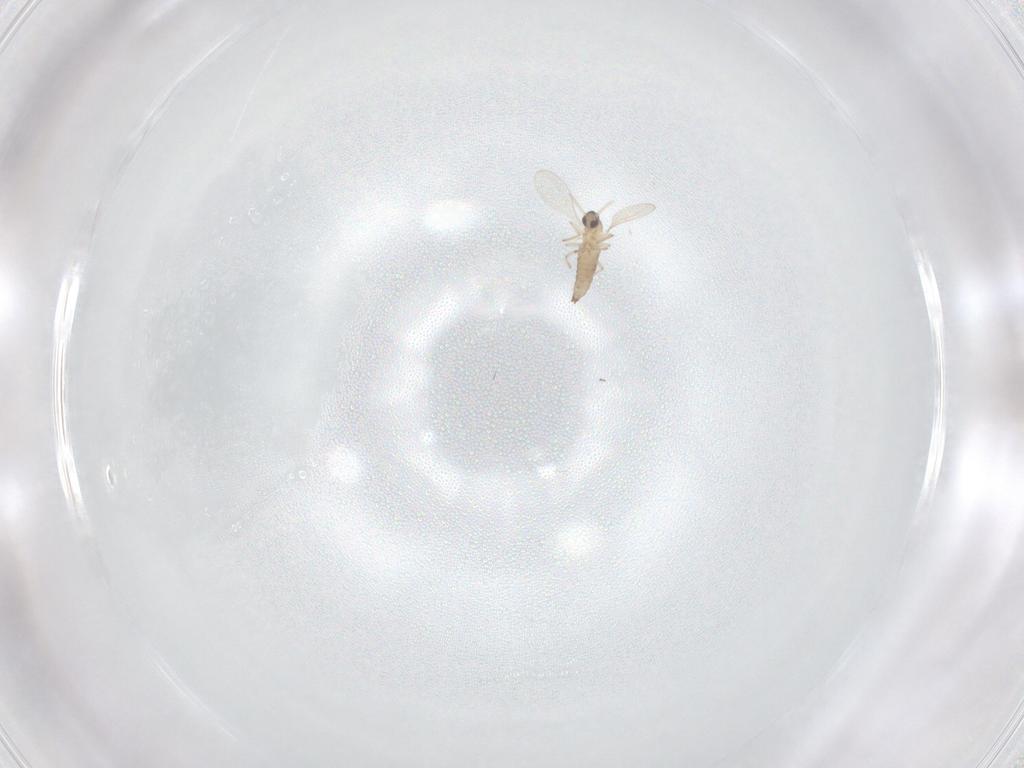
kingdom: Animalia
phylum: Arthropoda
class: Insecta
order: Diptera
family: Cecidomyiidae
